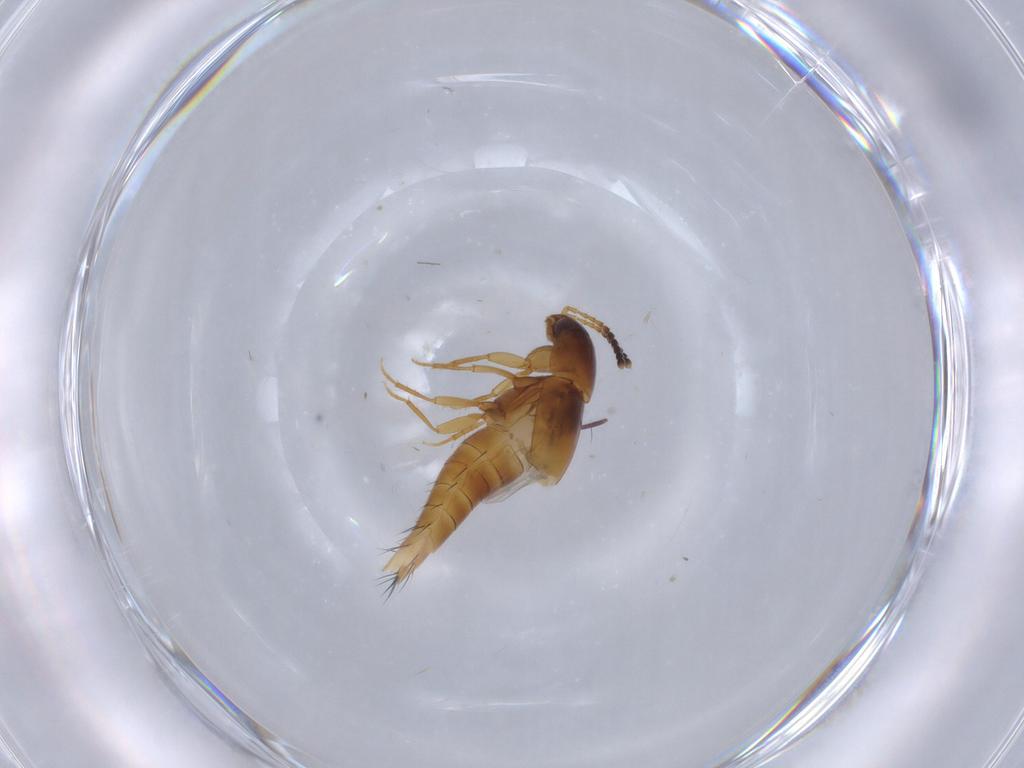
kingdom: Animalia
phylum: Arthropoda
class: Insecta
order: Coleoptera
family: Staphylinidae
